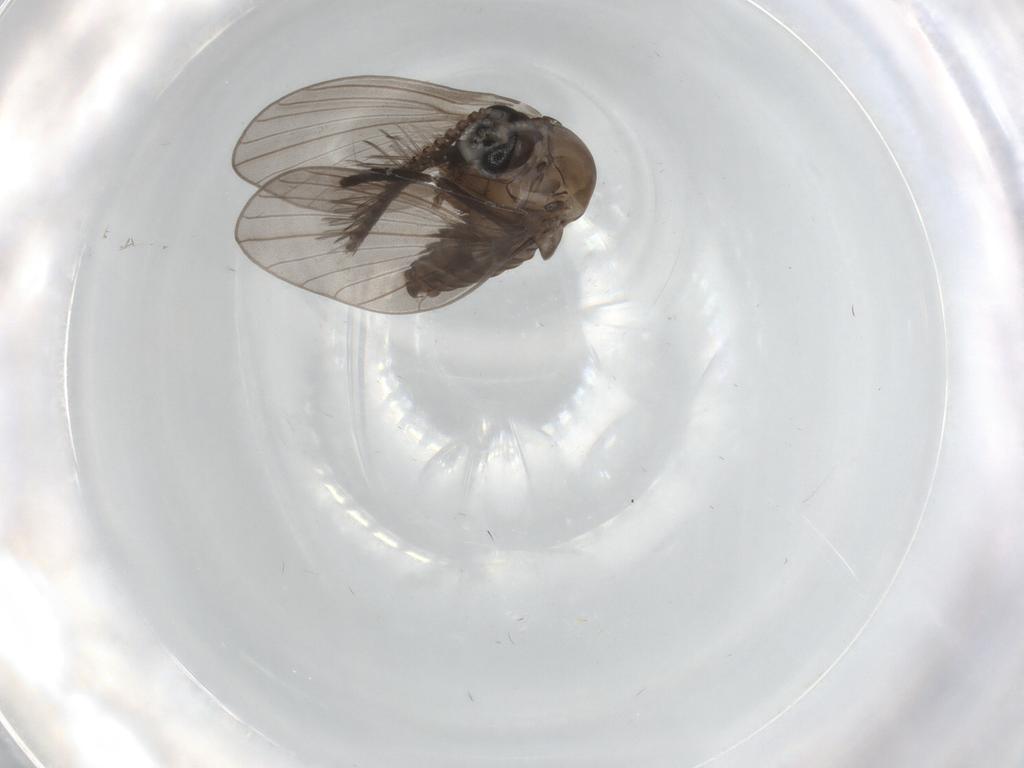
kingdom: Animalia
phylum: Arthropoda
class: Insecta
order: Diptera
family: Psychodidae
